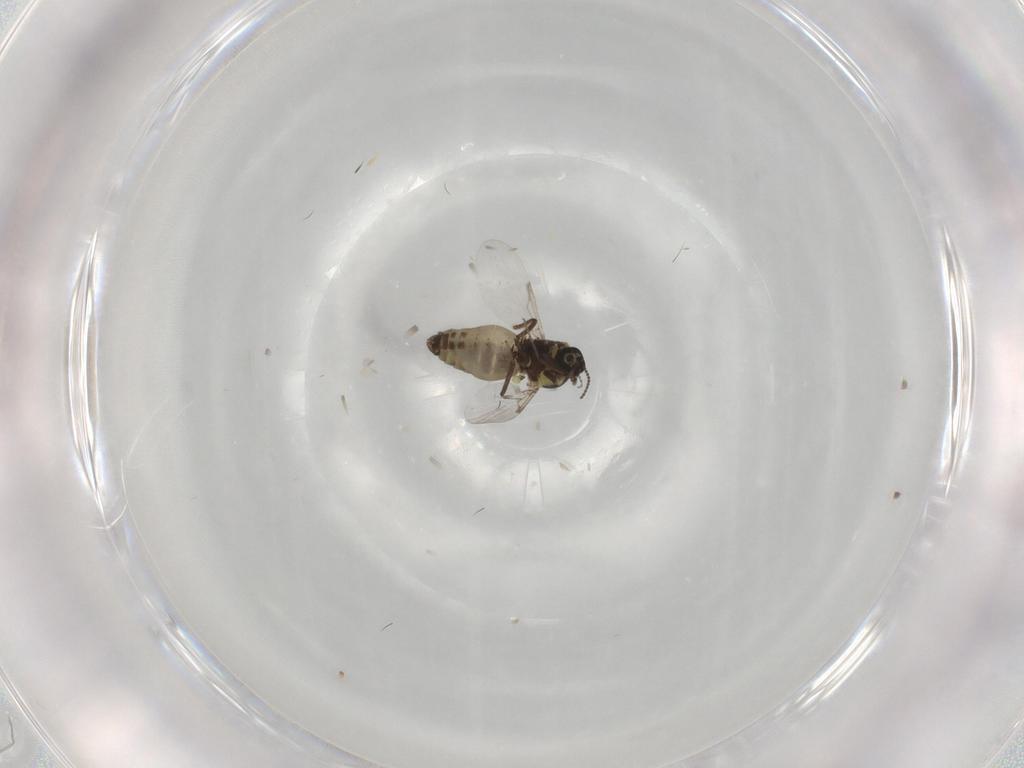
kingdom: Animalia
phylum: Arthropoda
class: Insecta
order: Diptera
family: Ceratopogonidae
